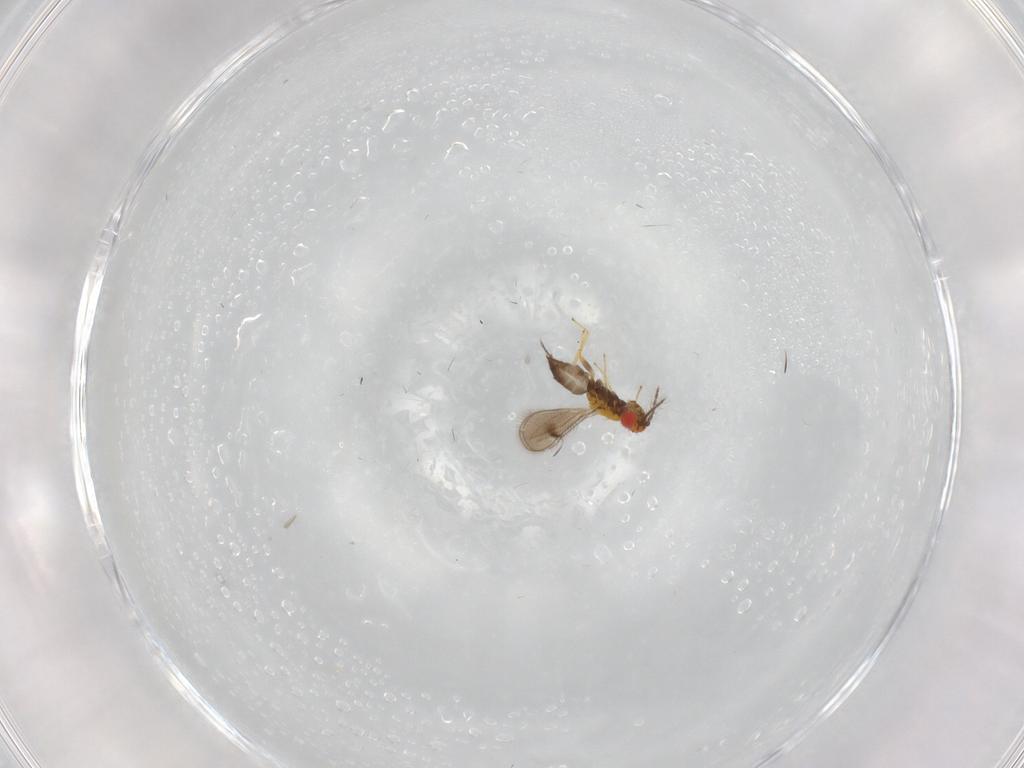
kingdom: Animalia
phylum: Arthropoda
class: Insecta
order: Hymenoptera
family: Eulophidae
